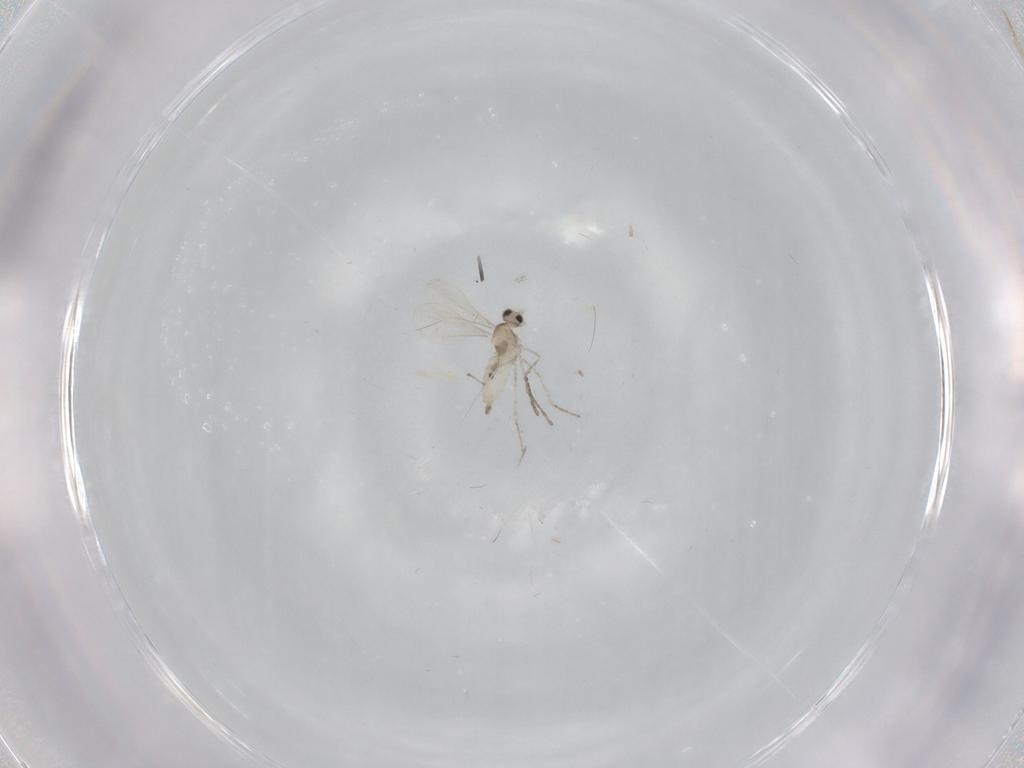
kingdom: Animalia
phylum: Arthropoda
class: Insecta
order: Diptera
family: Cecidomyiidae
